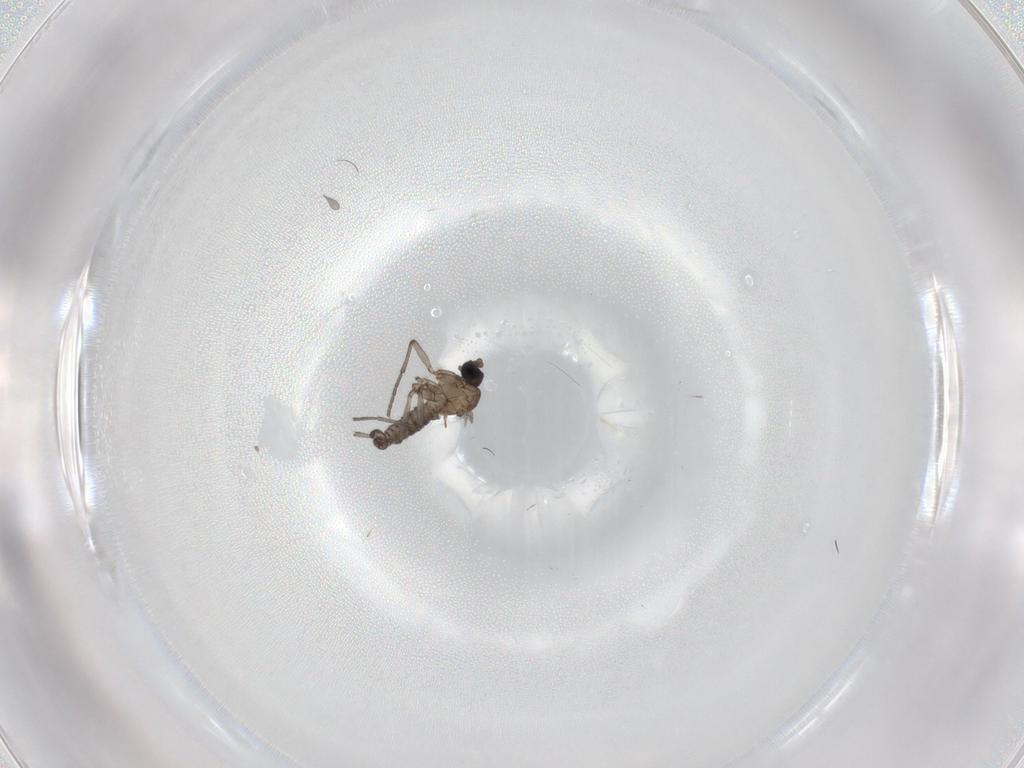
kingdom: Animalia
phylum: Arthropoda
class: Insecta
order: Diptera
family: Sciaridae
